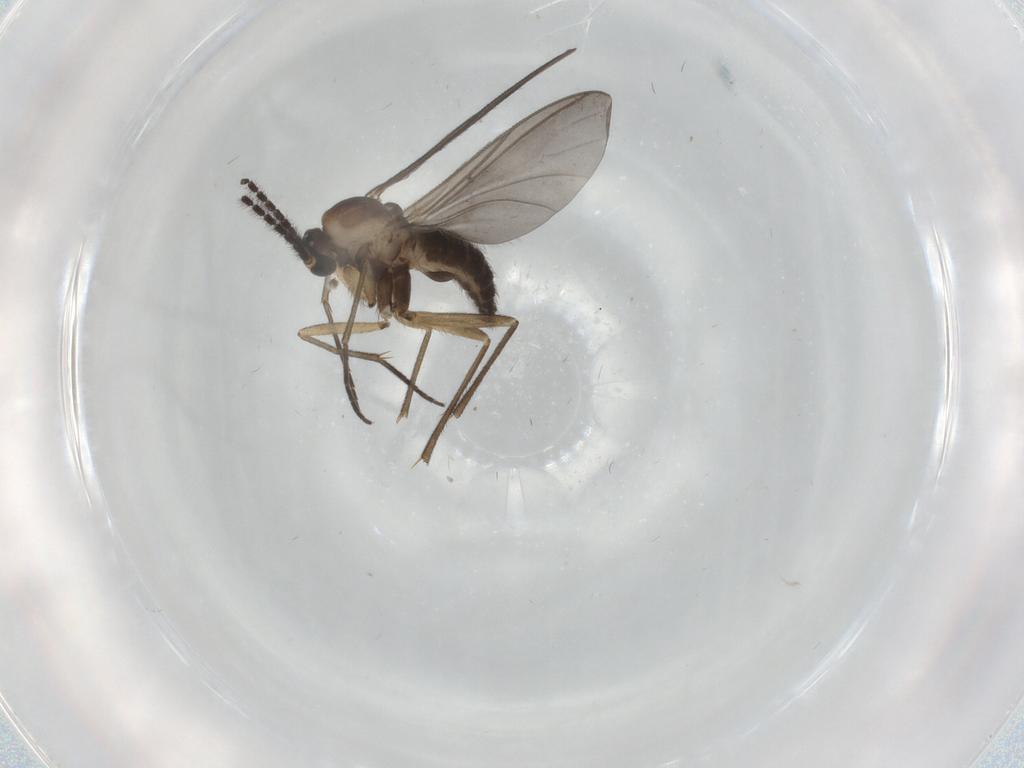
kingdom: Animalia
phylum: Arthropoda
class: Insecta
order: Diptera
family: Sciaridae
